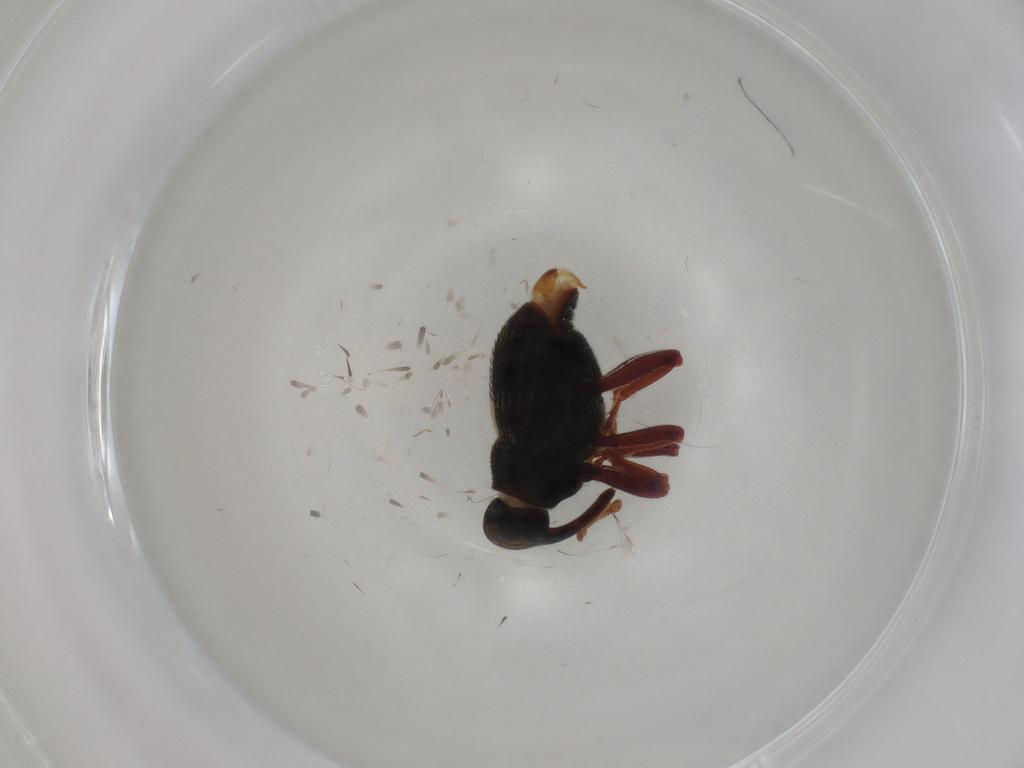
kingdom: Animalia
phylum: Arthropoda
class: Insecta
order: Coleoptera
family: Curculionidae
